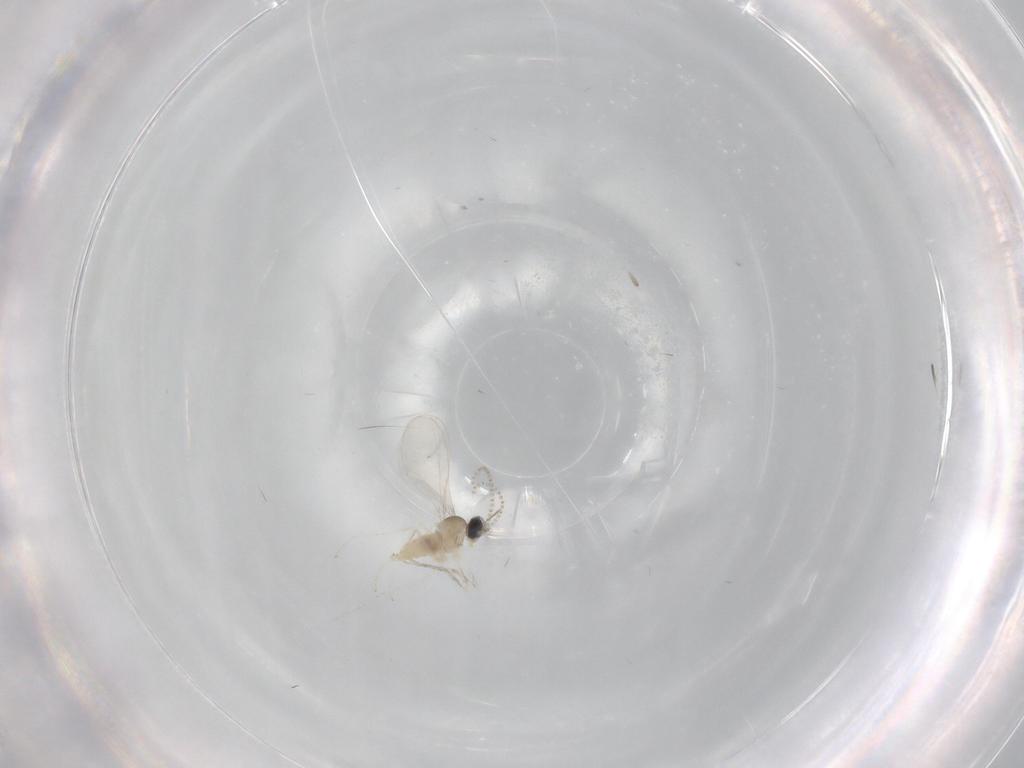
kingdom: Animalia
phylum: Arthropoda
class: Insecta
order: Diptera
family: Cecidomyiidae
